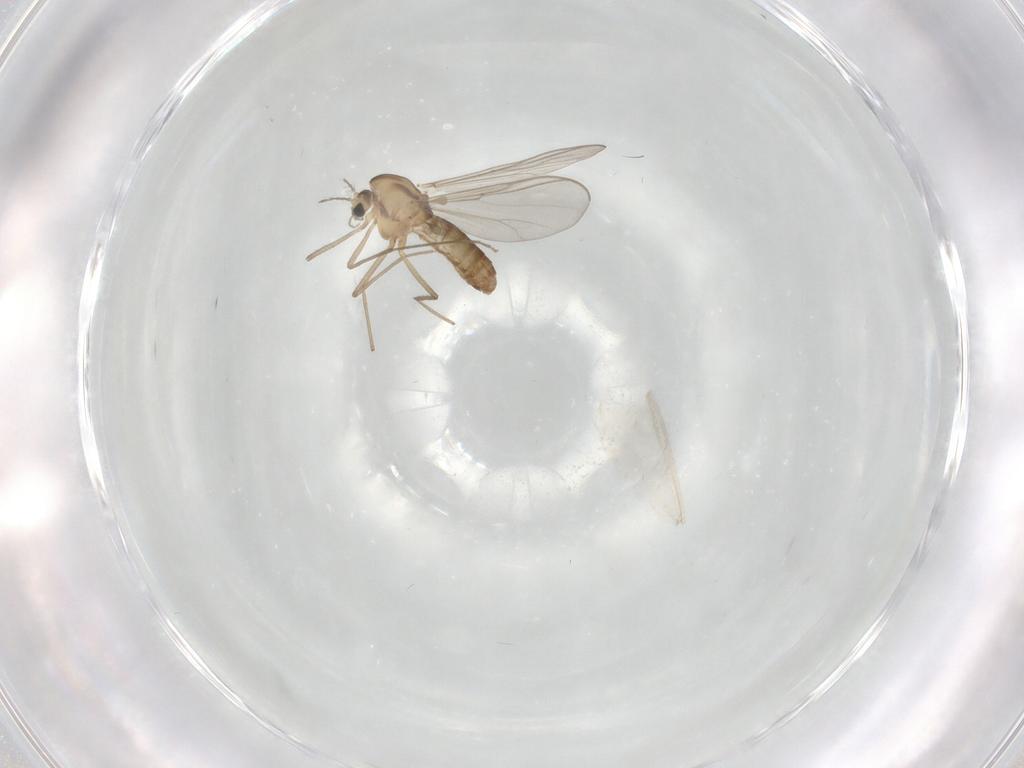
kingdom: Animalia
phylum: Arthropoda
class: Insecta
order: Diptera
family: Chironomidae
